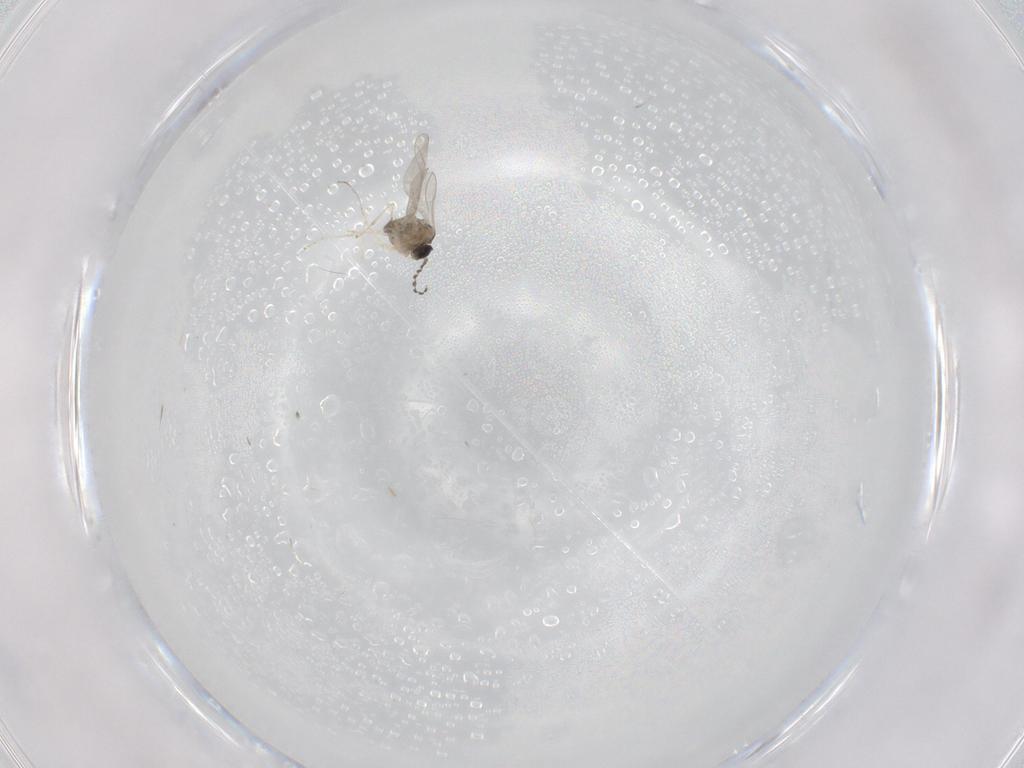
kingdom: Animalia
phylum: Arthropoda
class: Insecta
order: Diptera
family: Cecidomyiidae
